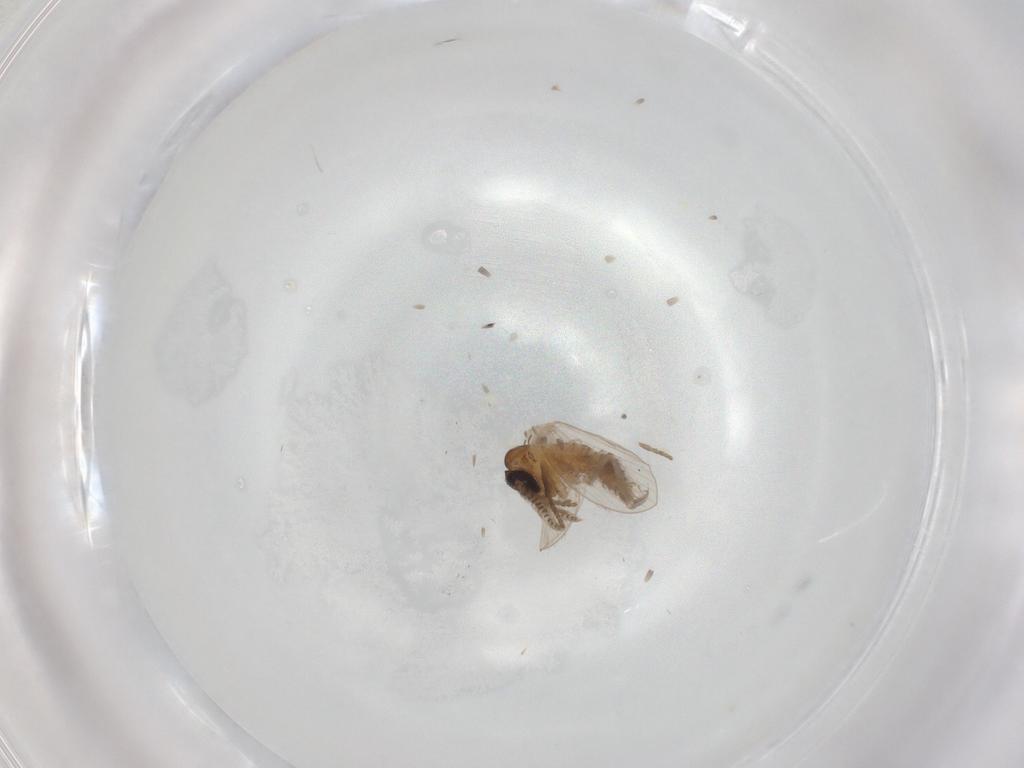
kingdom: Animalia
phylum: Arthropoda
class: Insecta
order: Diptera
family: Psychodidae
